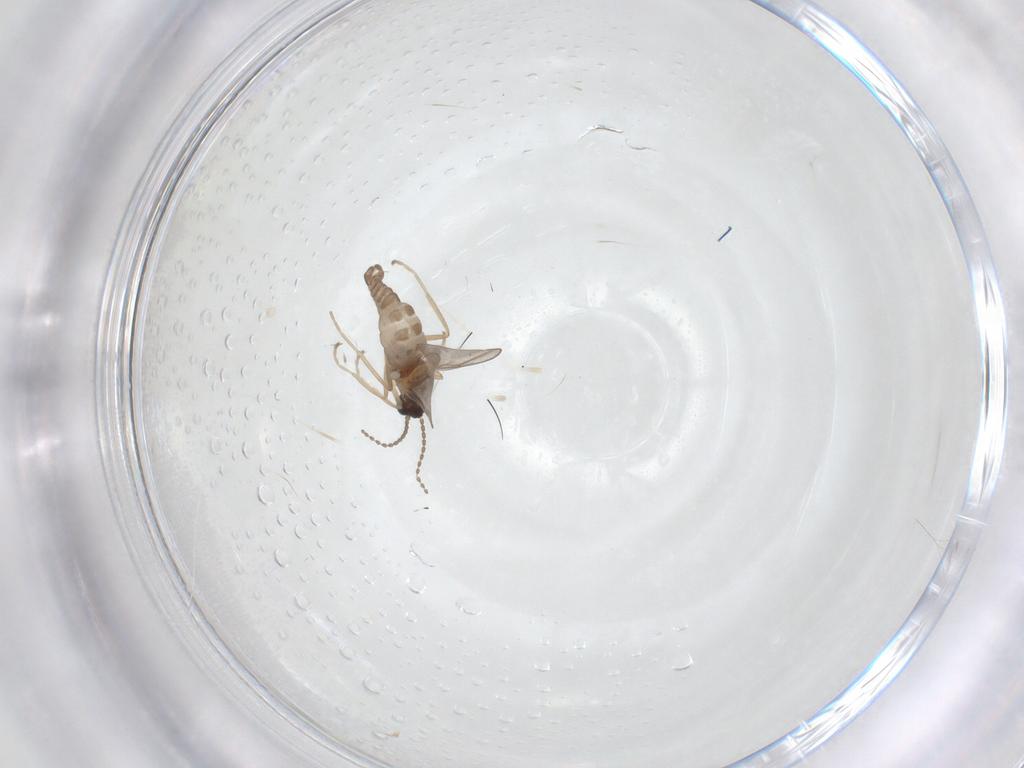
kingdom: Animalia
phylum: Arthropoda
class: Insecta
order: Diptera
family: Cecidomyiidae
